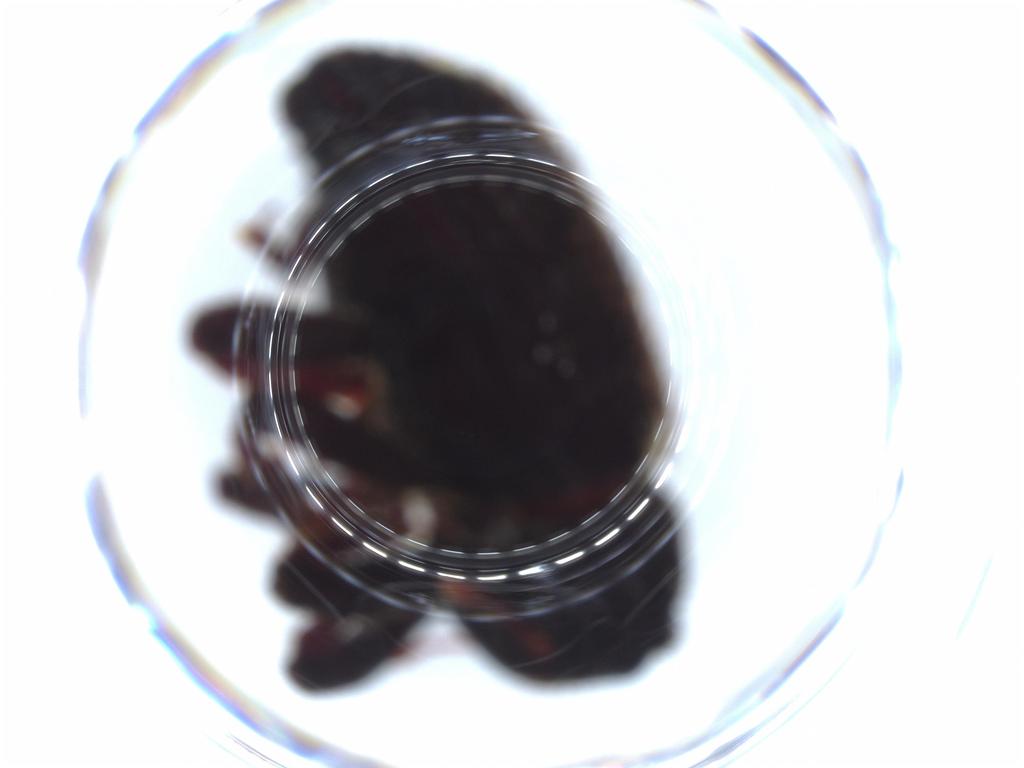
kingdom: Animalia
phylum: Arthropoda
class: Insecta
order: Coleoptera
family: Curculionidae
